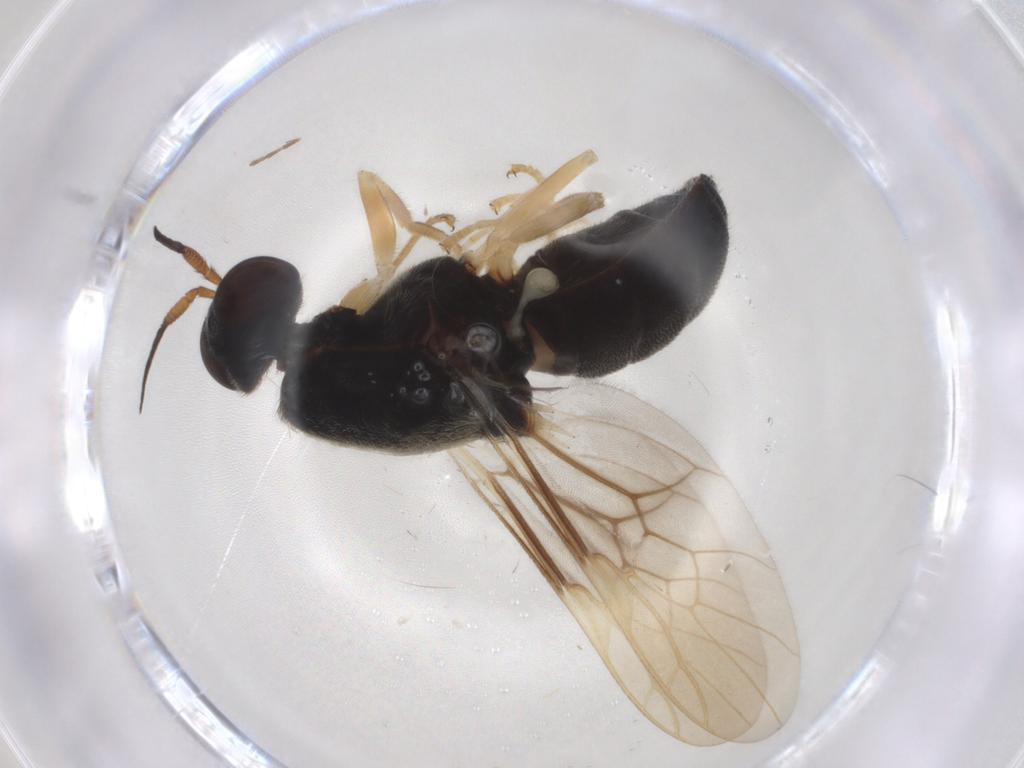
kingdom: Animalia
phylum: Arthropoda
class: Insecta
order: Diptera
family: Stratiomyidae
